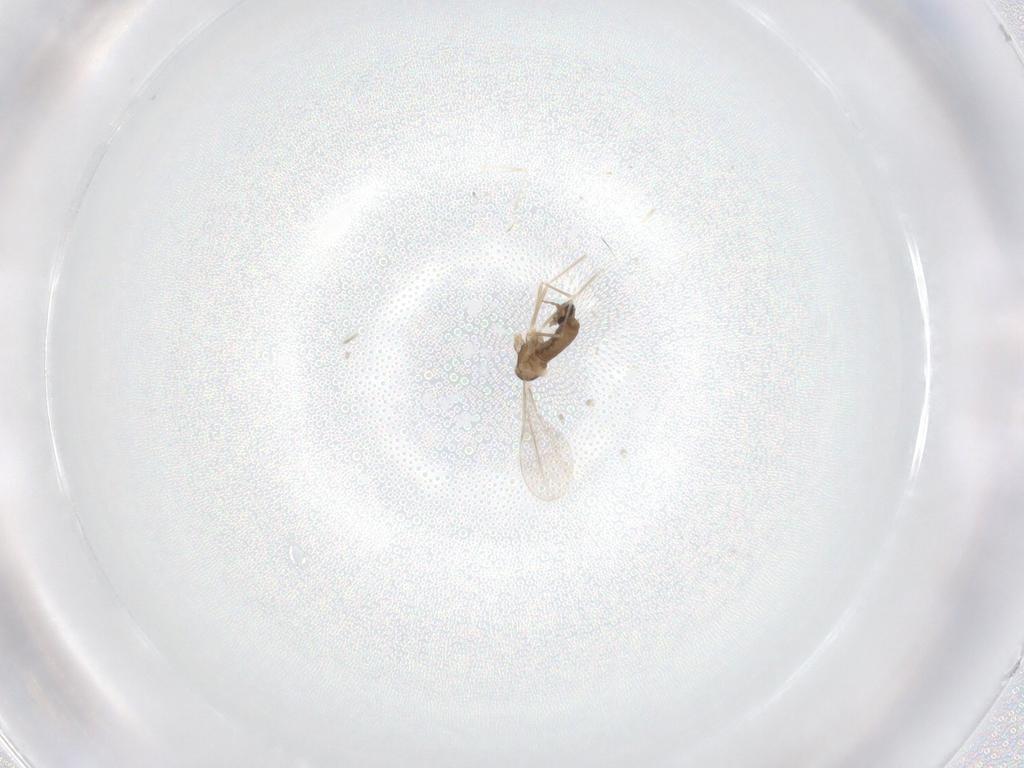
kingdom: Animalia
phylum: Arthropoda
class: Insecta
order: Diptera
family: Cecidomyiidae
